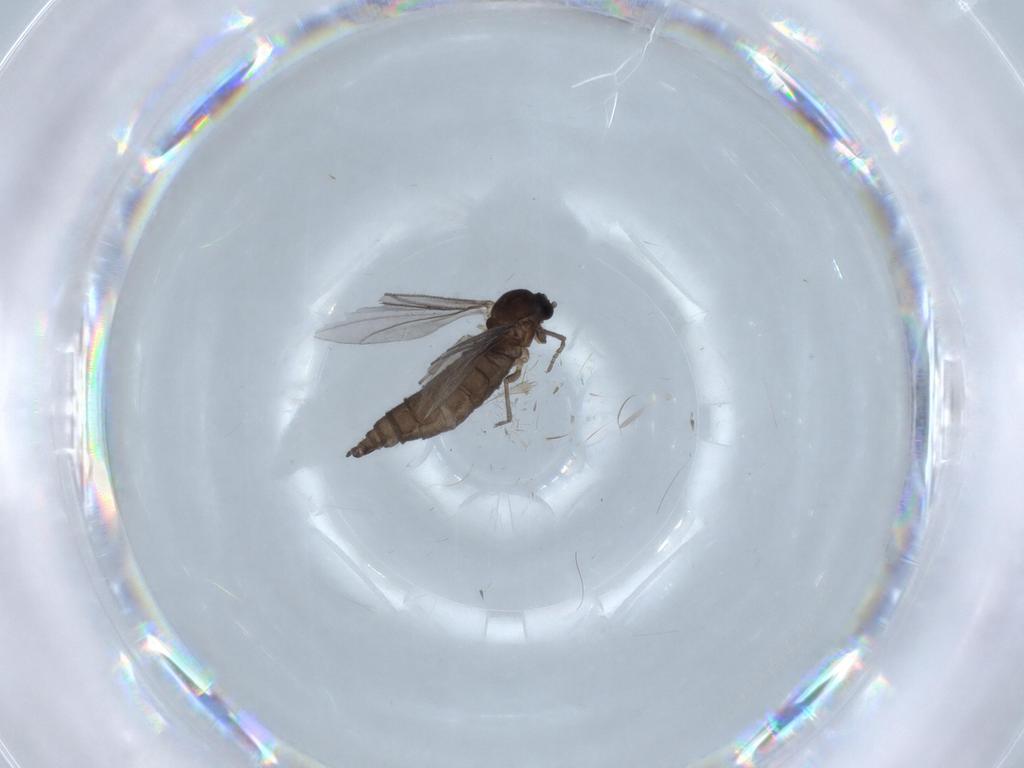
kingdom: Animalia
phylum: Arthropoda
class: Insecta
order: Diptera
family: Sciaridae
